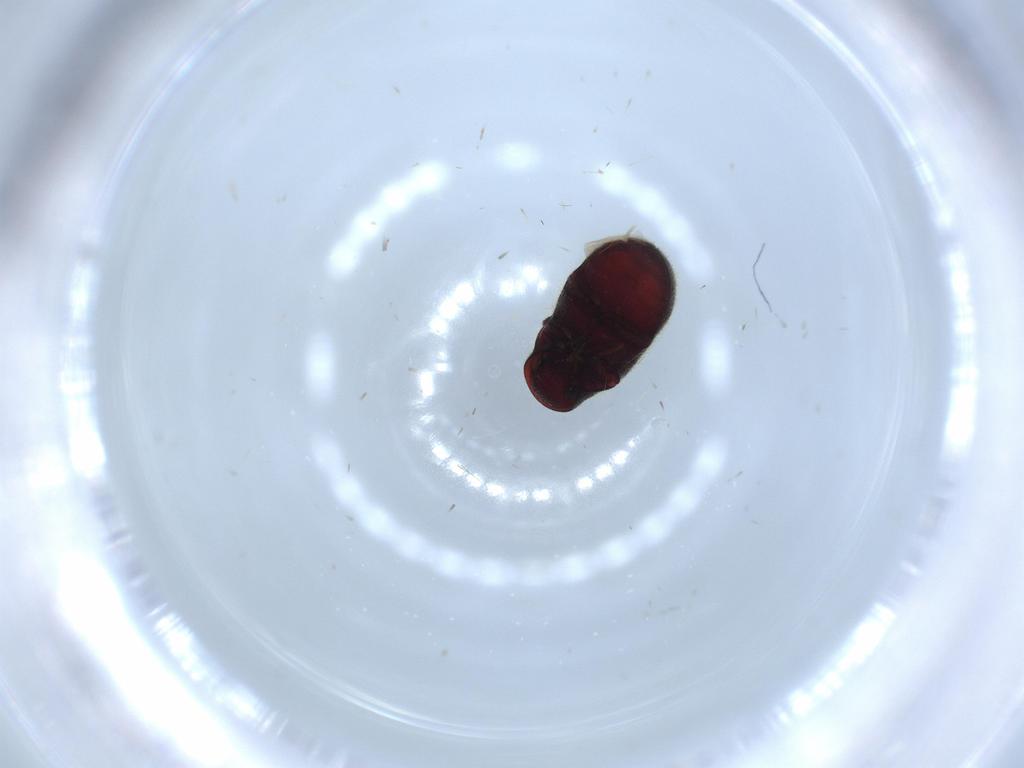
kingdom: Animalia
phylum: Arthropoda
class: Insecta
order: Coleoptera
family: Ptinidae
